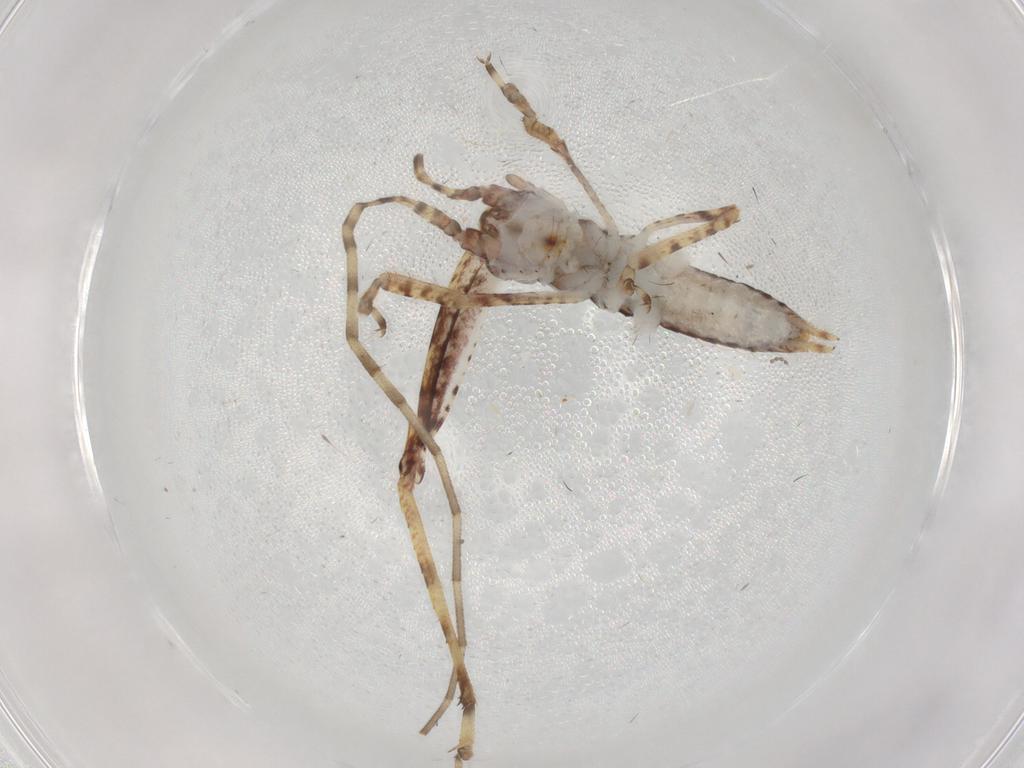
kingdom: Animalia
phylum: Arthropoda
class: Insecta
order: Orthoptera
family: Gryllidae
